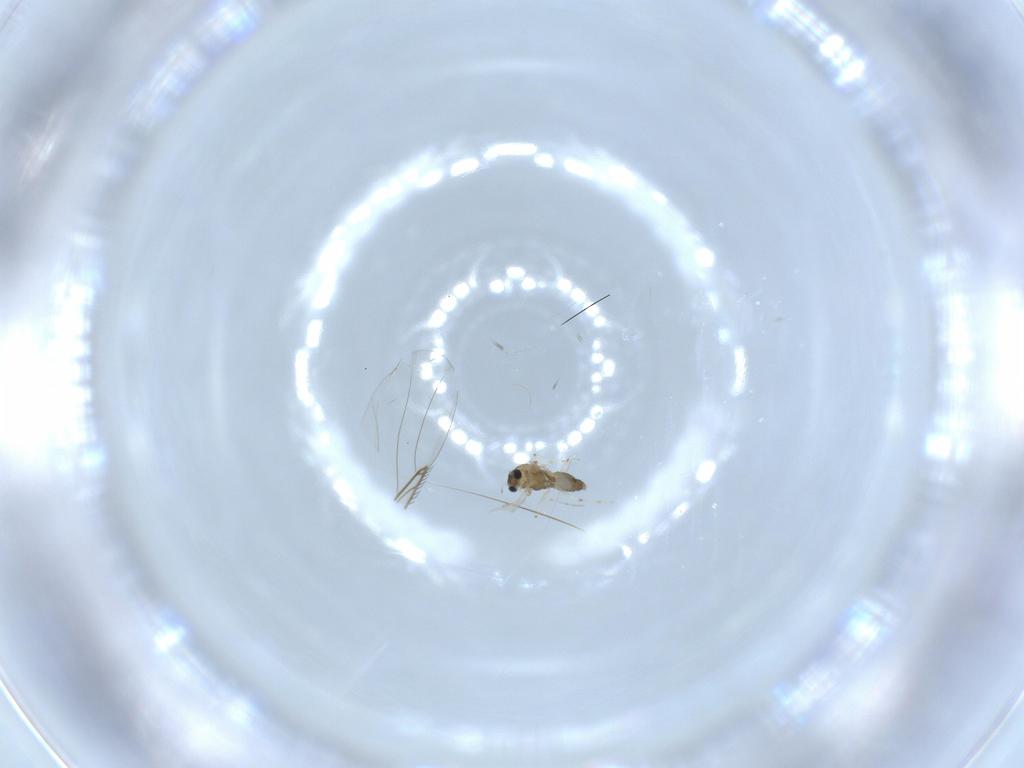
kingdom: Animalia
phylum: Arthropoda
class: Insecta
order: Diptera
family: Chironomidae
